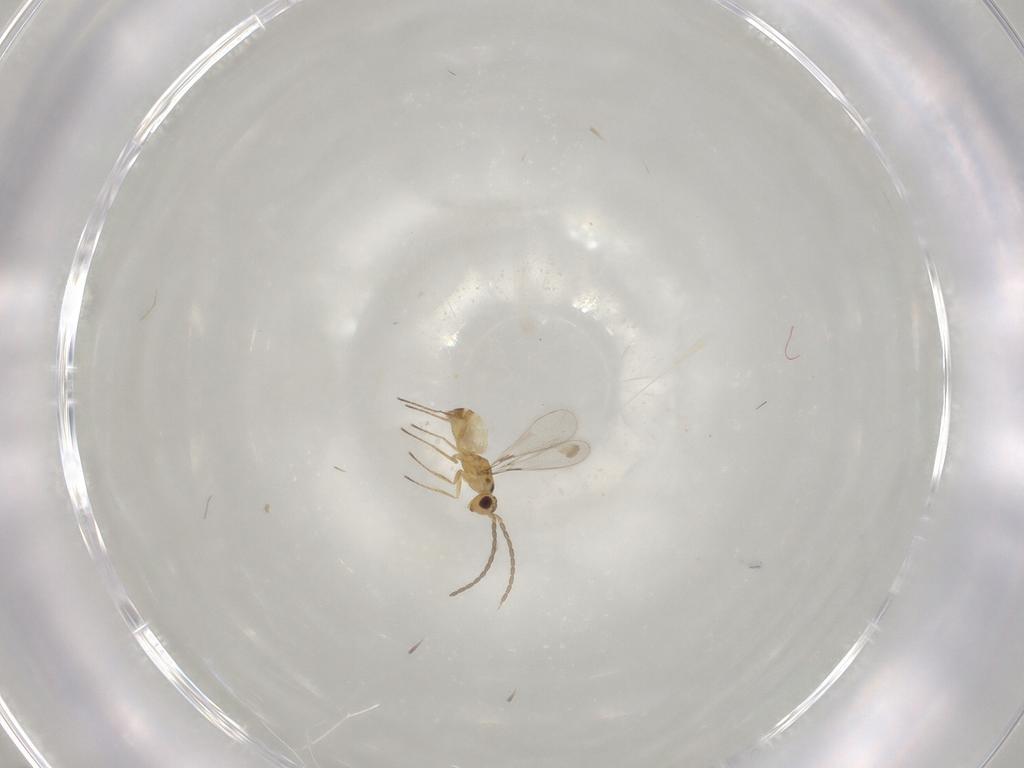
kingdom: Animalia
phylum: Arthropoda
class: Insecta
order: Hymenoptera
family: Mymaridae
